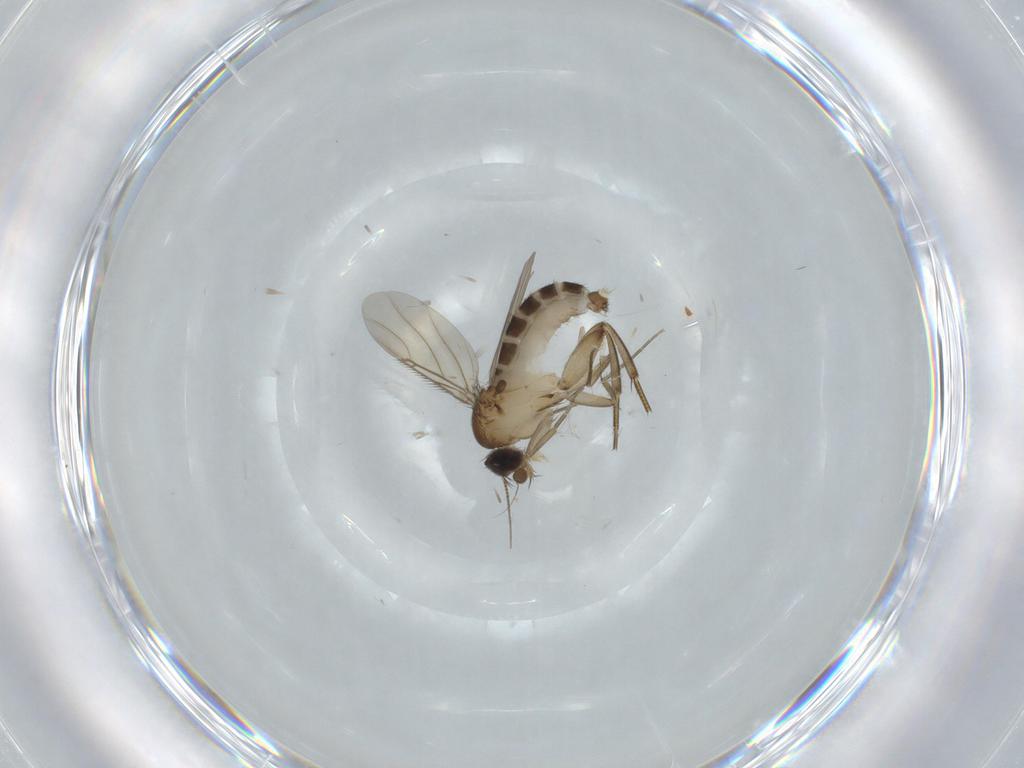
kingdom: Animalia
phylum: Arthropoda
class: Insecta
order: Diptera
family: Phoridae
